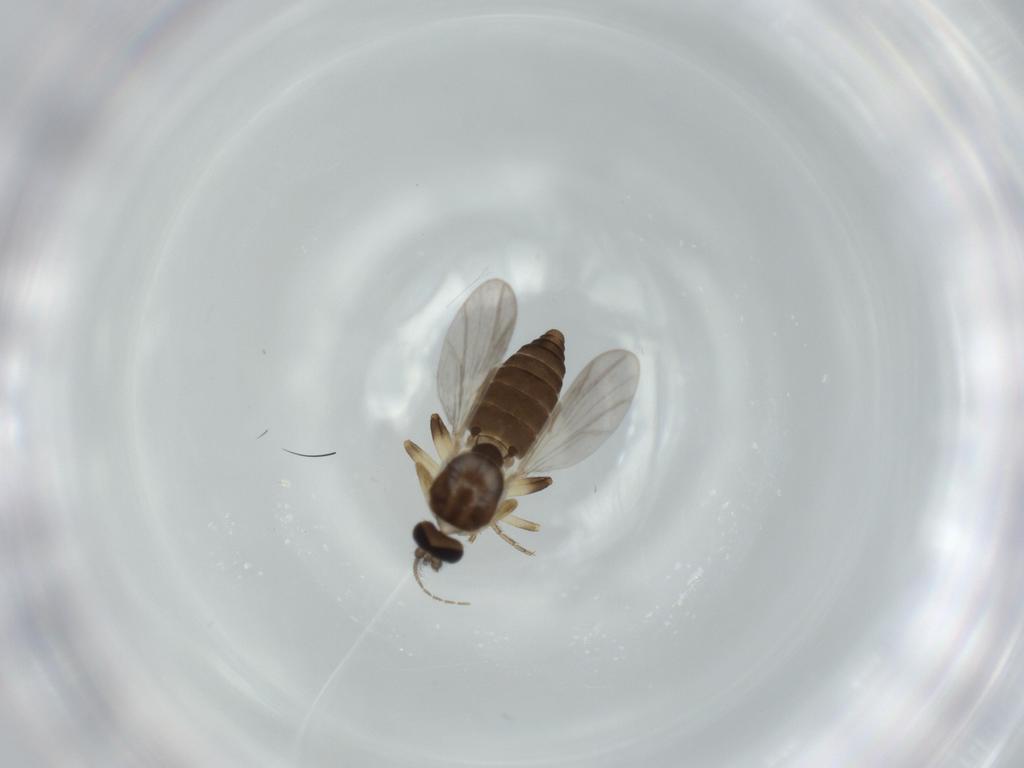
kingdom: Animalia
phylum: Arthropoda
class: Insecta
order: Diptera
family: Ceratopogonidae
